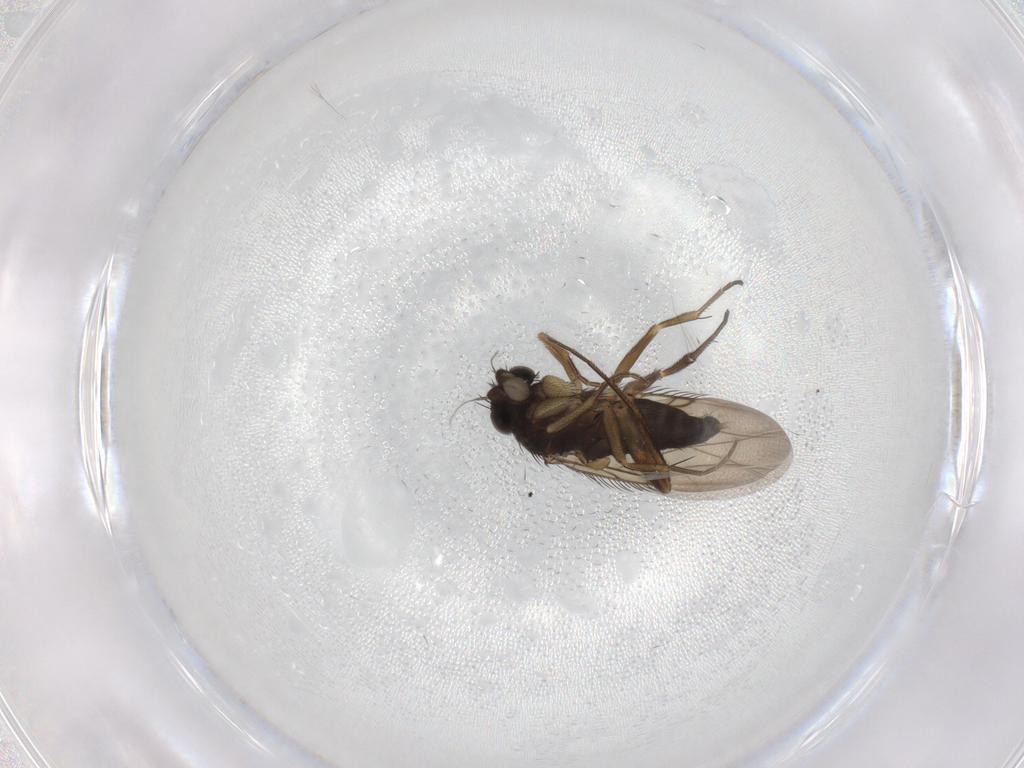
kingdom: Animalia
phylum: Arthropoda
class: Insecta
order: Diptera
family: Phoridae
